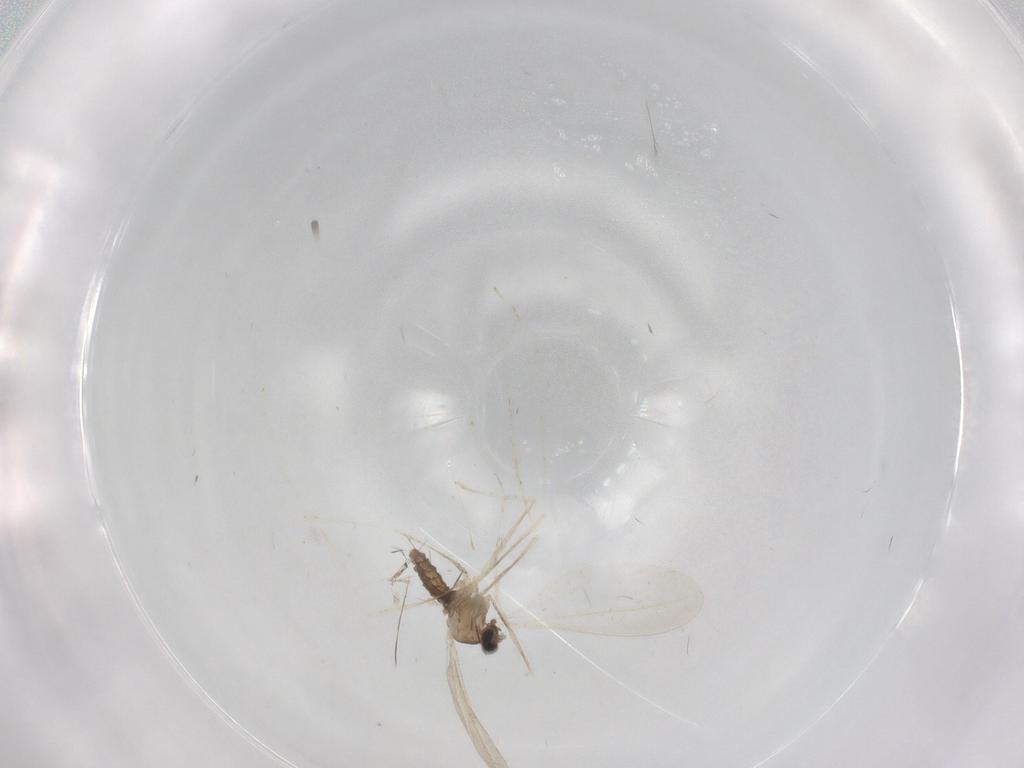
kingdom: Animalia
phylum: Arthropoda
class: Insecta
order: Diptera
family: Cecidomyiidae
